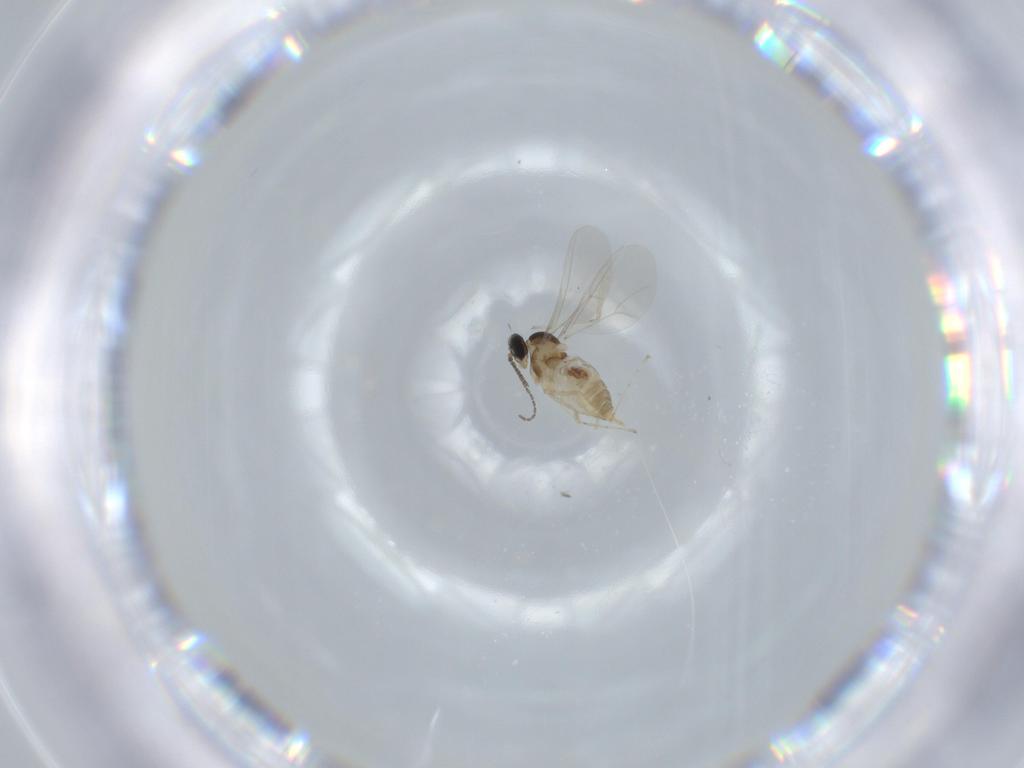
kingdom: Animalia
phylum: Arthropoda
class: Insecta
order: Diptera
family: Cecidomyiidae
